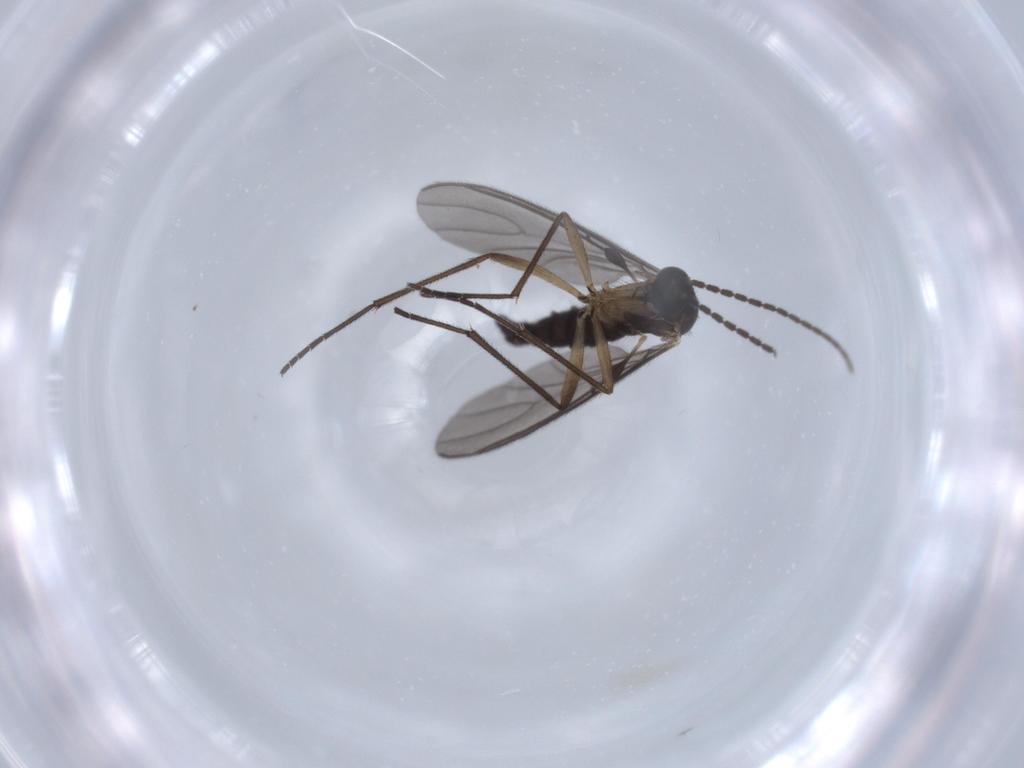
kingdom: Animalia
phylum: Arthropoda
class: Insecta
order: Diptera
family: Sciaridae
